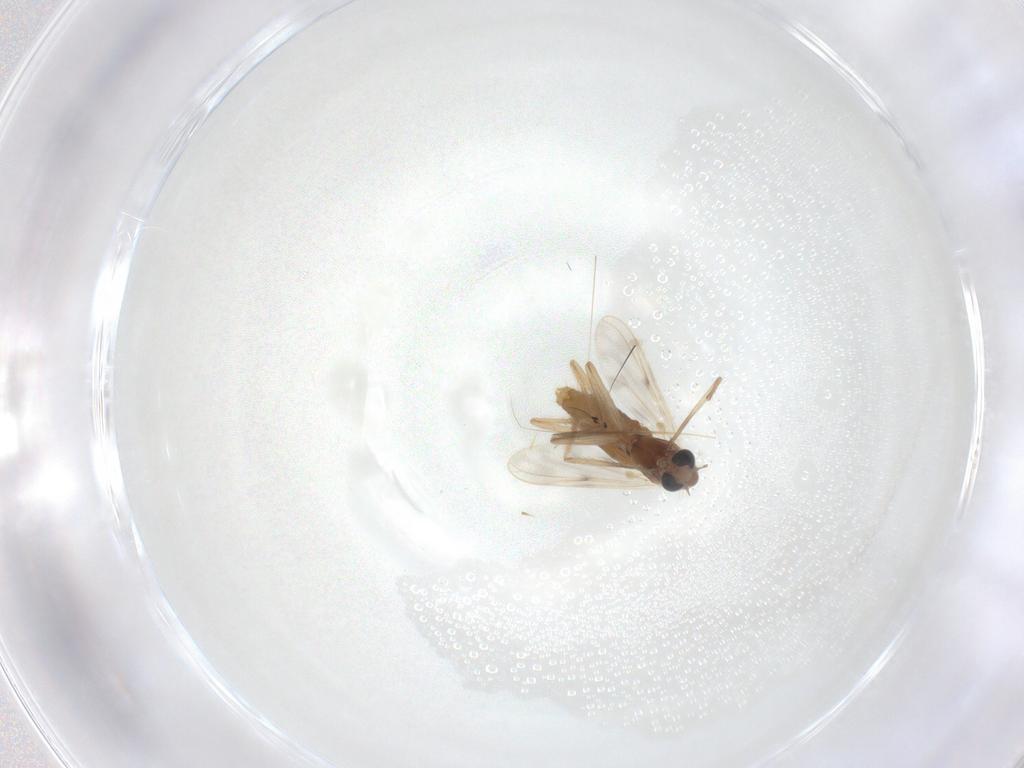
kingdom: Animalia
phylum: Arthropoda
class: Insecta
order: Diptera
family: Chironomidae
